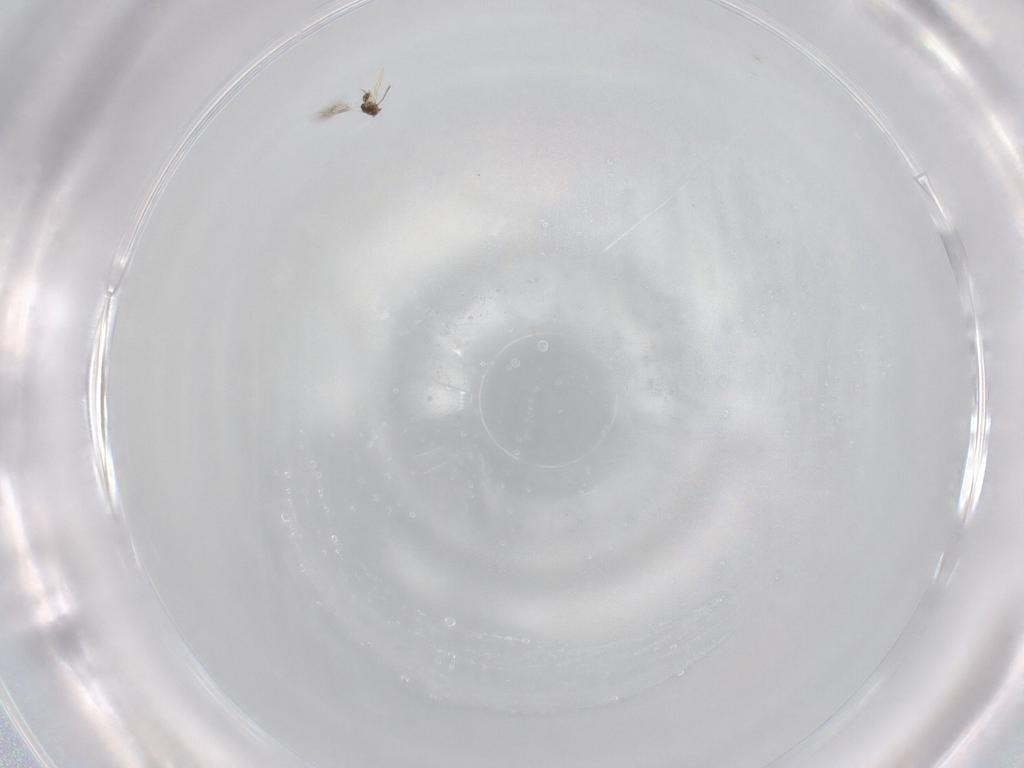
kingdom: Animalia
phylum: Arthropoda
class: Insecta
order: Hymenoptera
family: Mymarommatidae
